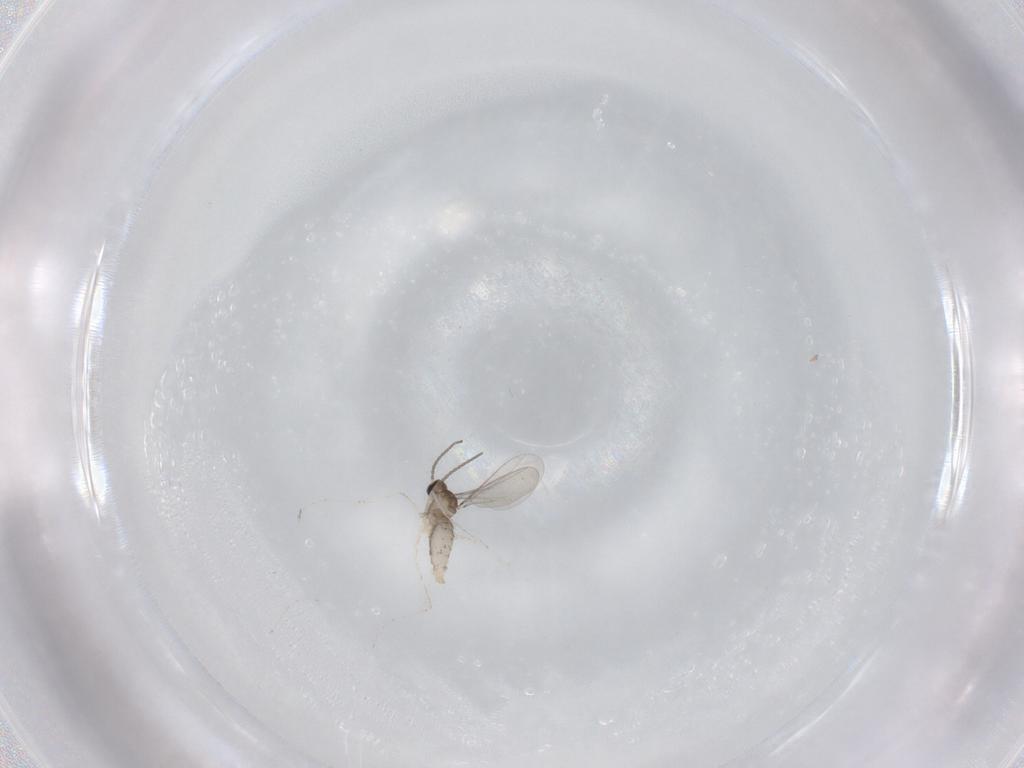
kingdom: Animalia
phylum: Arthropoda
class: Insecta
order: Diptera
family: Cecidomyiidae
